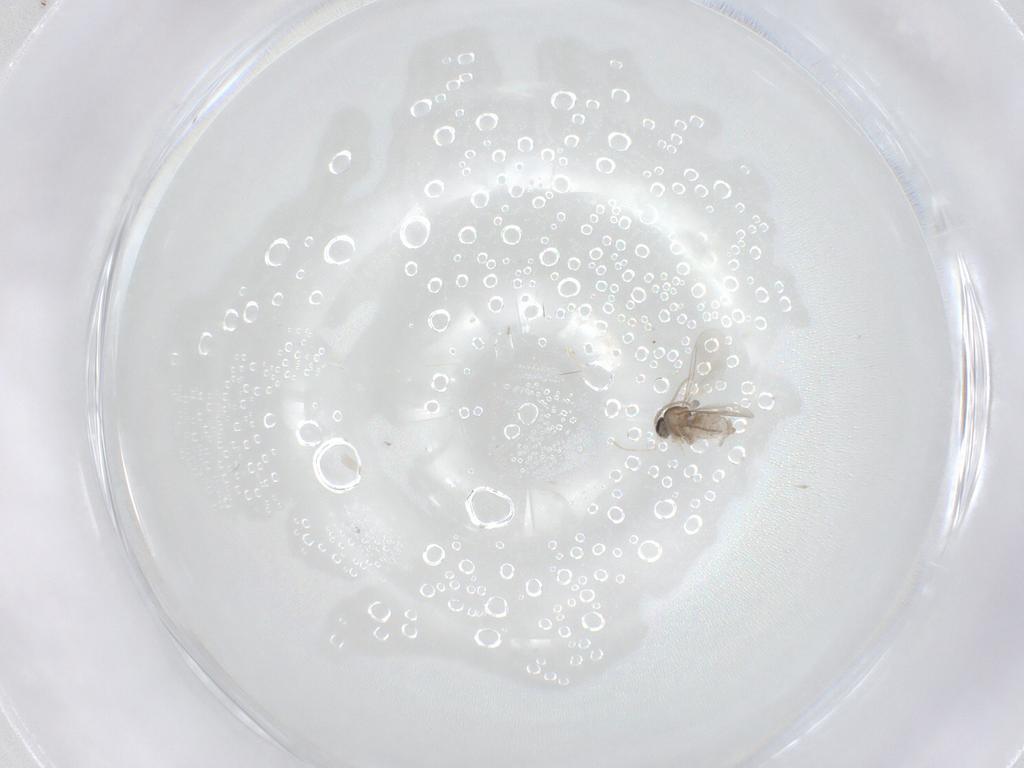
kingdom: Animalia
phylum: Arthropoda
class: Insecta
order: Diptera
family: Cecidomyiidae
